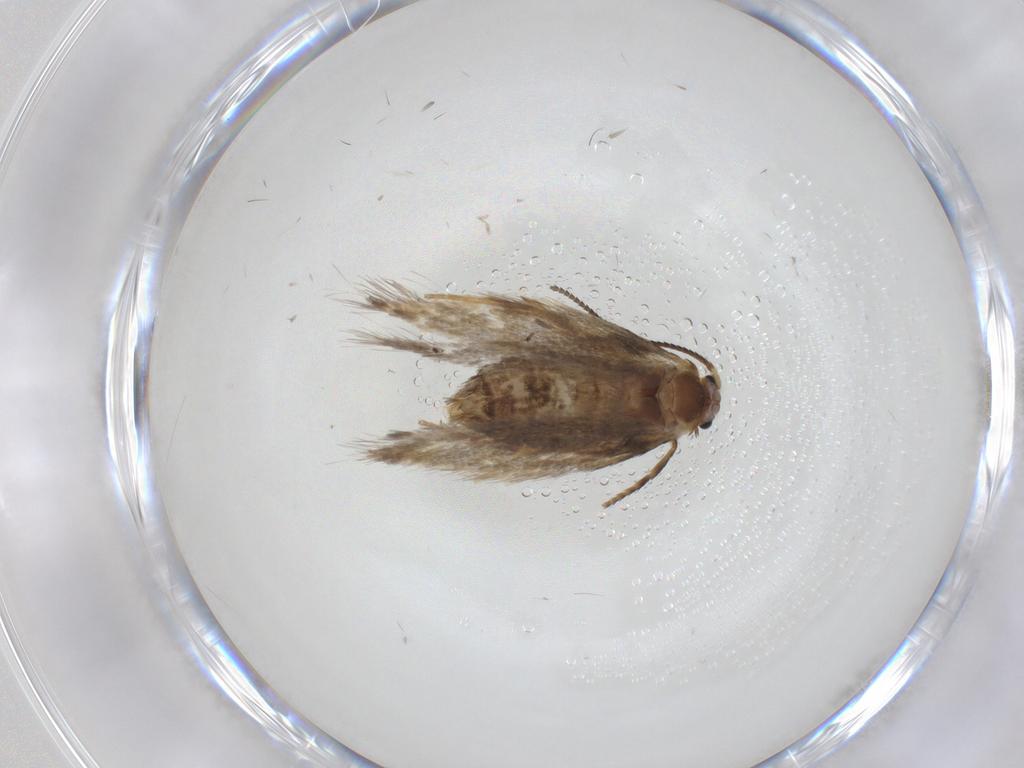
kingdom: Animalia
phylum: Arthropoda
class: Insecta
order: Lepidoptera
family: Nepticulidae
